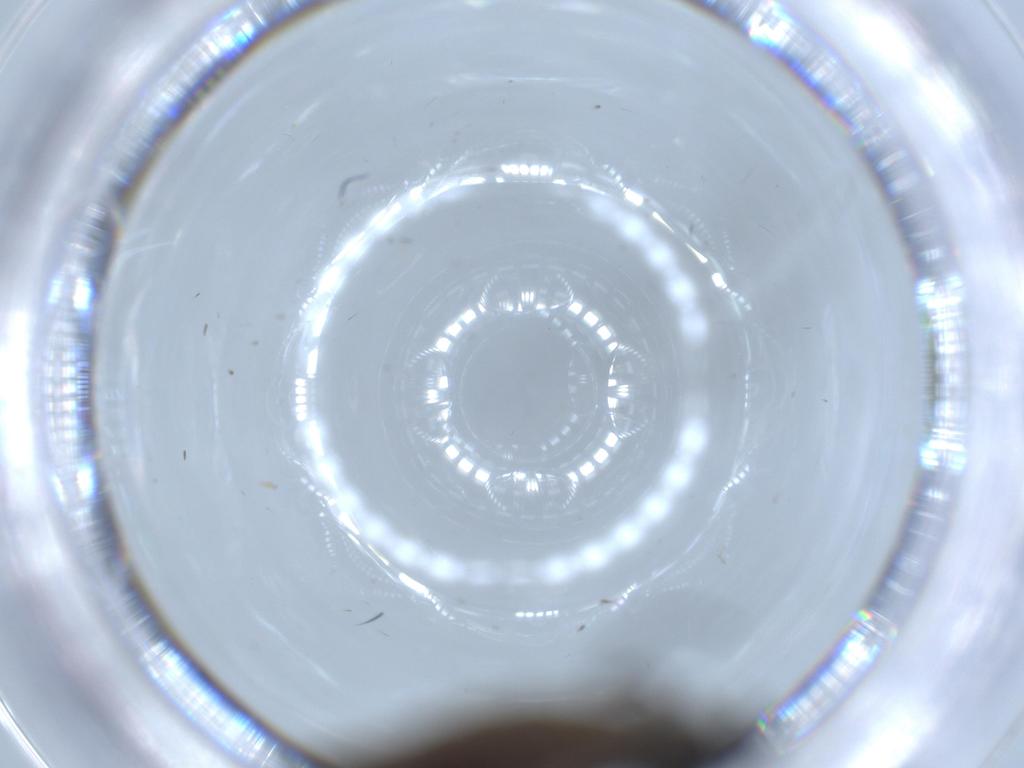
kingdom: Animalia
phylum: Arthropoda
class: Insecta
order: Diptera
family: Sciaridae
